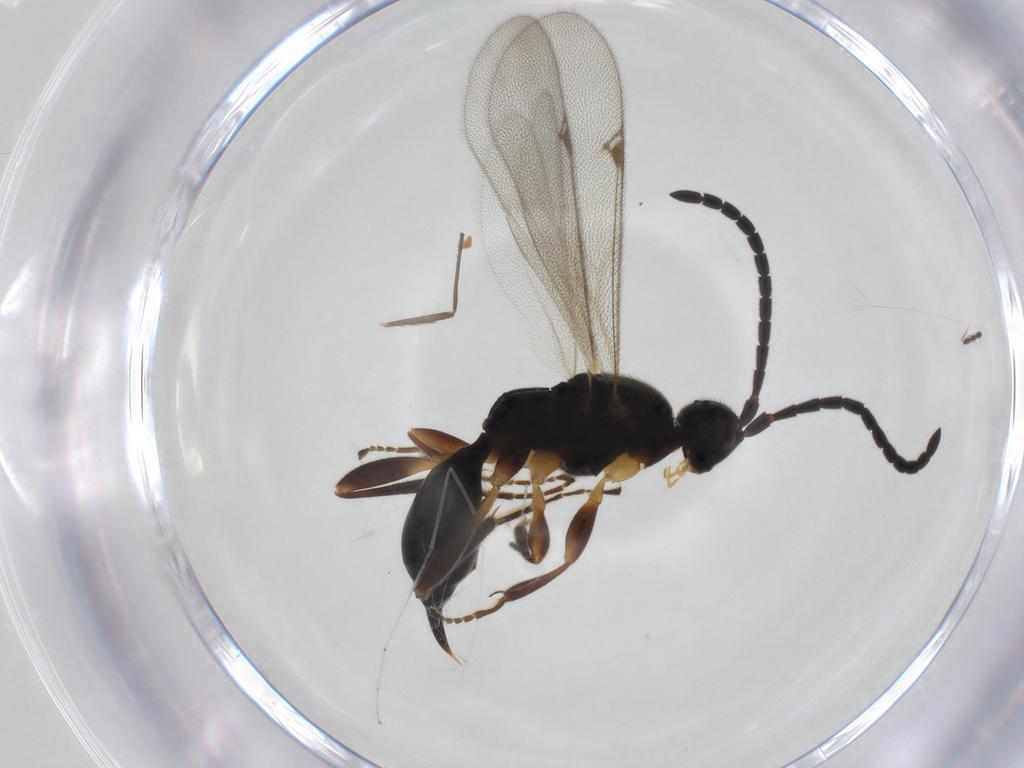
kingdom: Animalia
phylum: Arthropoda
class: Insecta
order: Hymenoptera
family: Proctotrupidae
